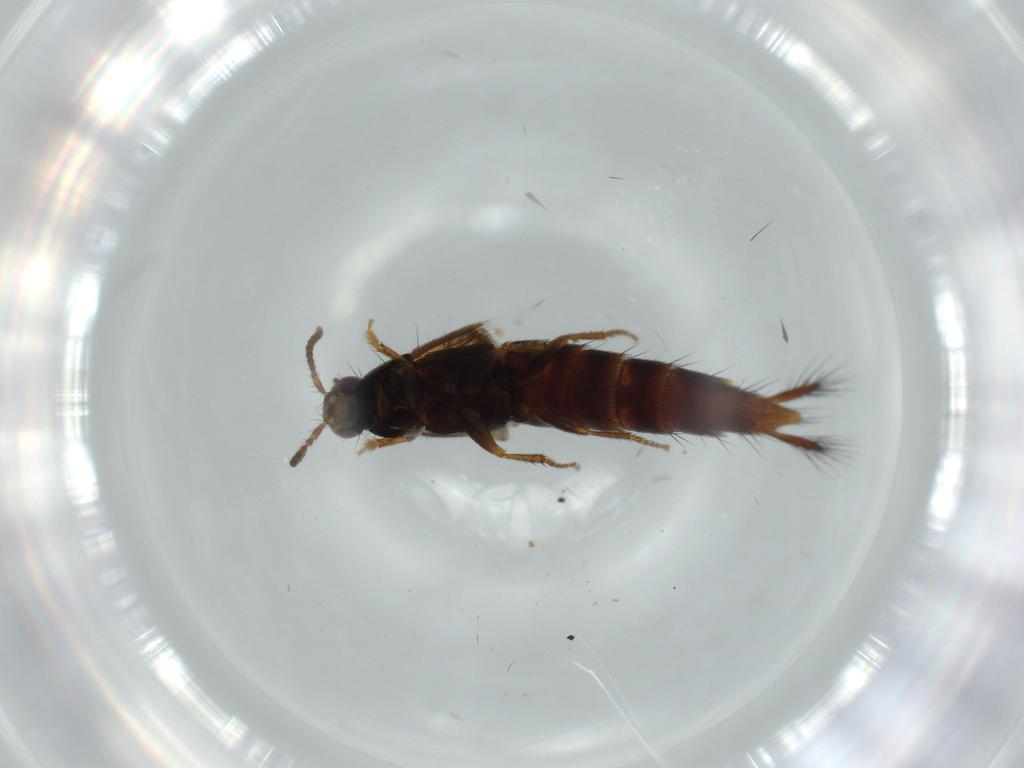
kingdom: Animalia
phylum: Arthropoda
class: Insecta
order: Coleoptera
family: Staphylinidae
